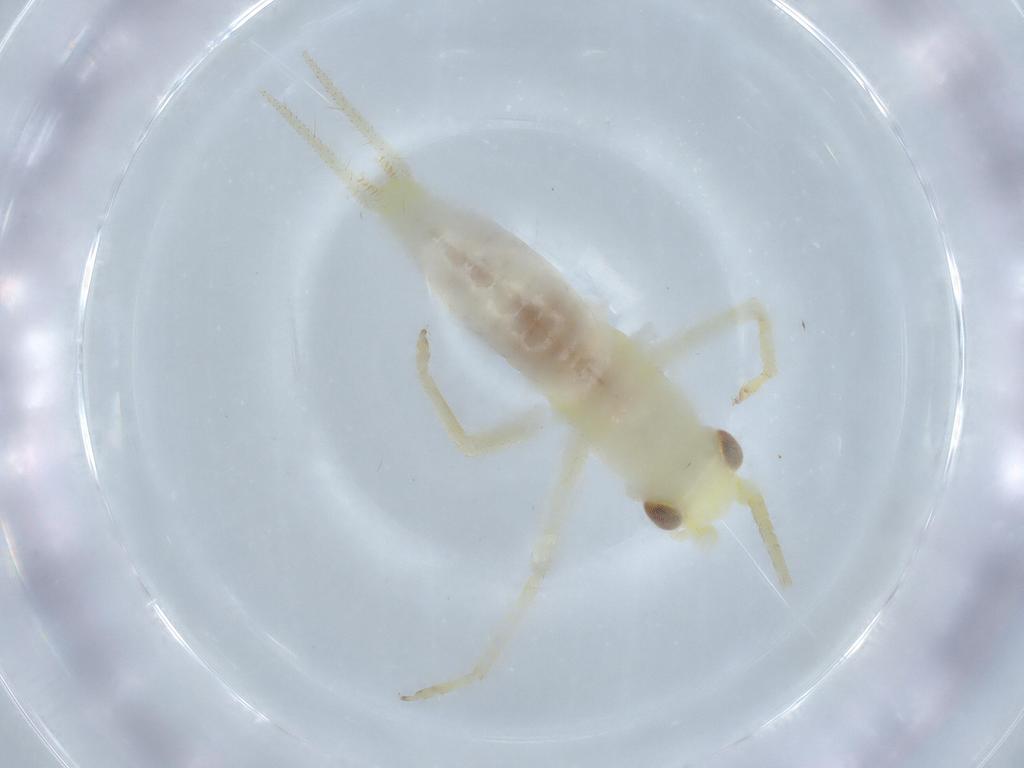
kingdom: Animalia
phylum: Arthropoda
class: Insecta
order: Orthoptera
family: Trigonidiidae
